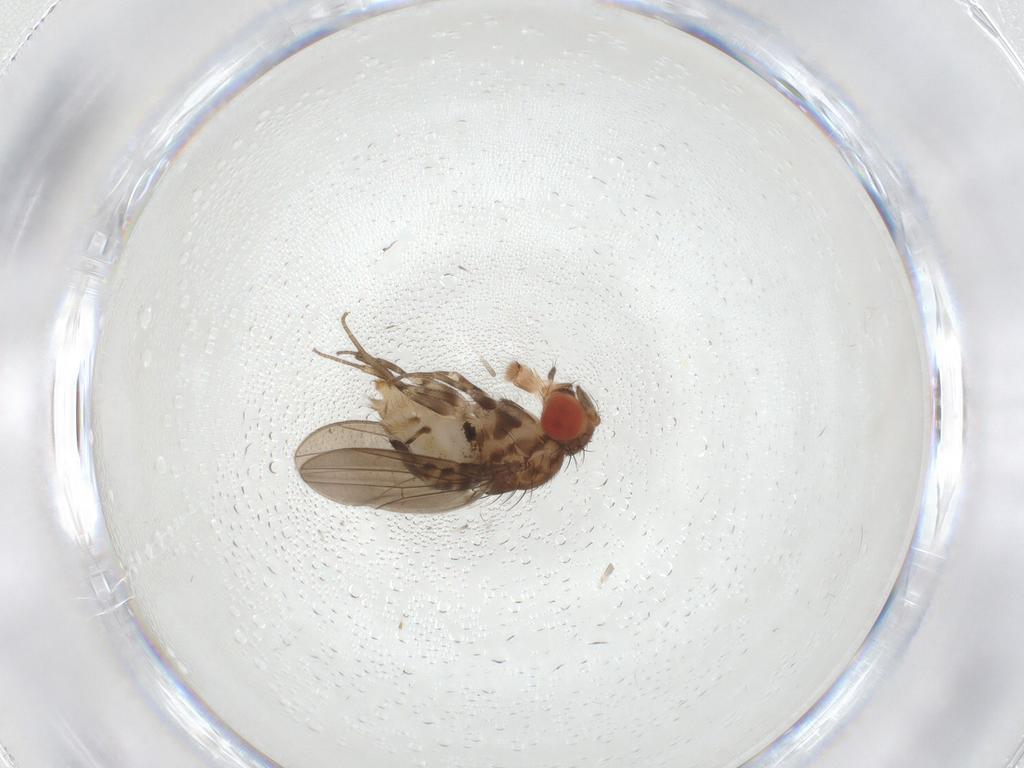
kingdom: Animalia
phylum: Arthropoda
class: Insecta
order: Diptera
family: Drosophilidae
